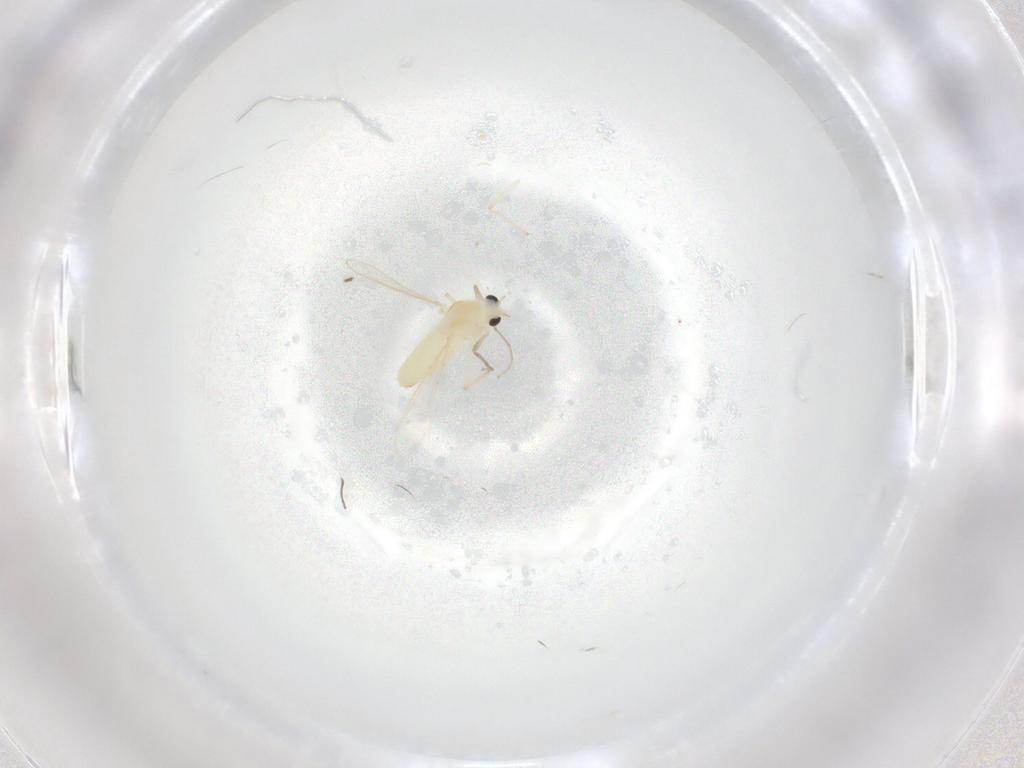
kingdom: Animalia
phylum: Arthropoda
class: Insecta
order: Diptera
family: Chironomidae
